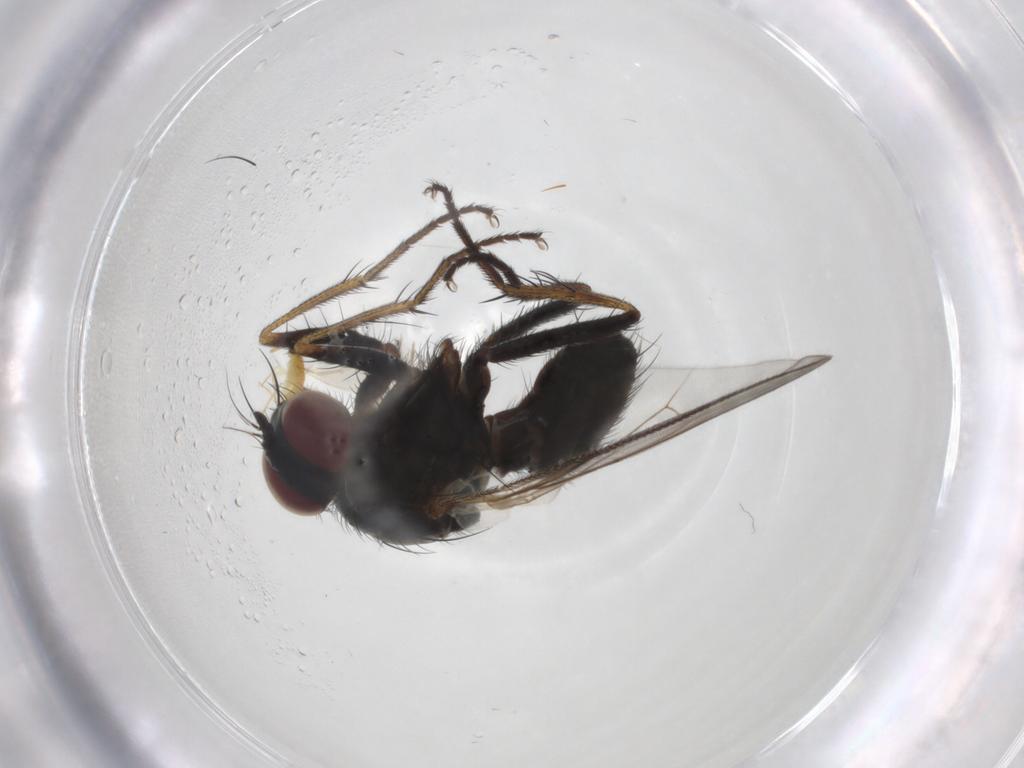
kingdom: Animalia
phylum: Arthropoda
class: Insecta
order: Diptera
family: Muscidae
